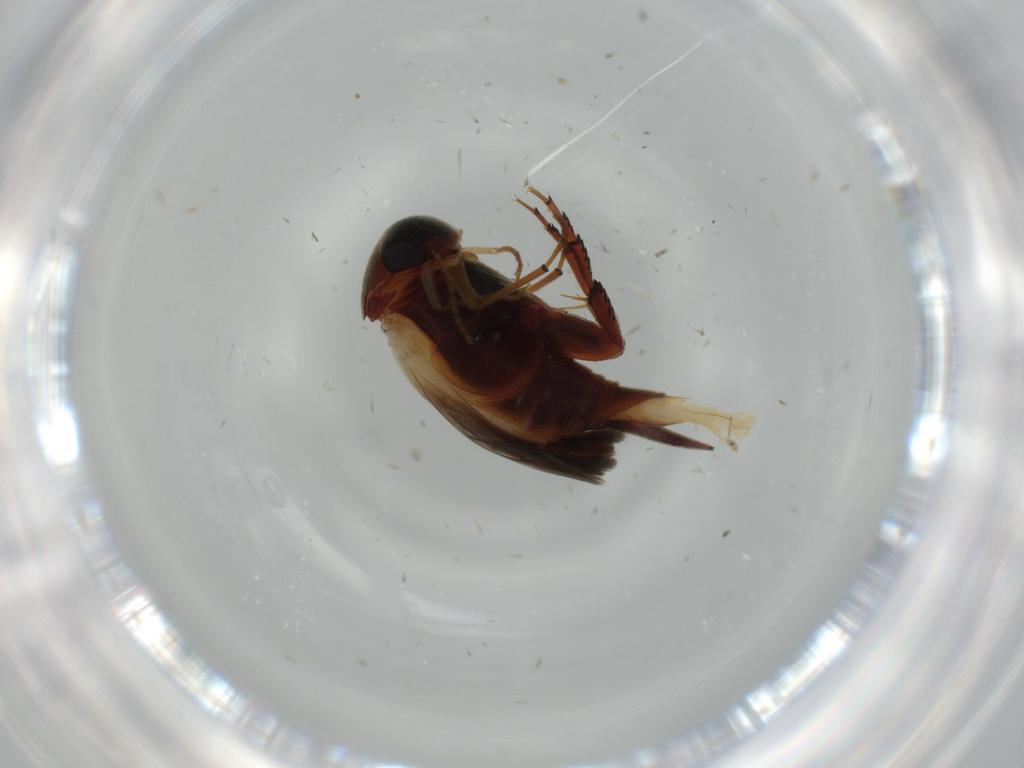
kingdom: Animalia
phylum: Arthropoda
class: Insecta
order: Coleoptera
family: Mordellidae
